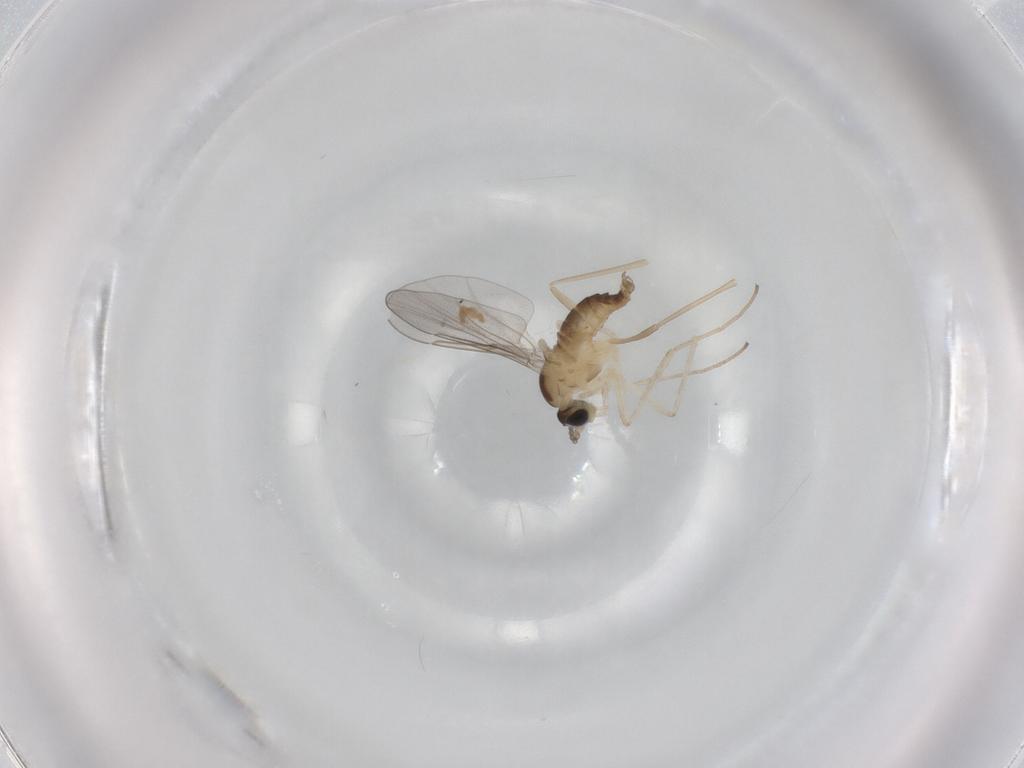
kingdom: Animalia
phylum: Arthropoda
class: Insecta
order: Diptera
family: Cecidomyiidae
